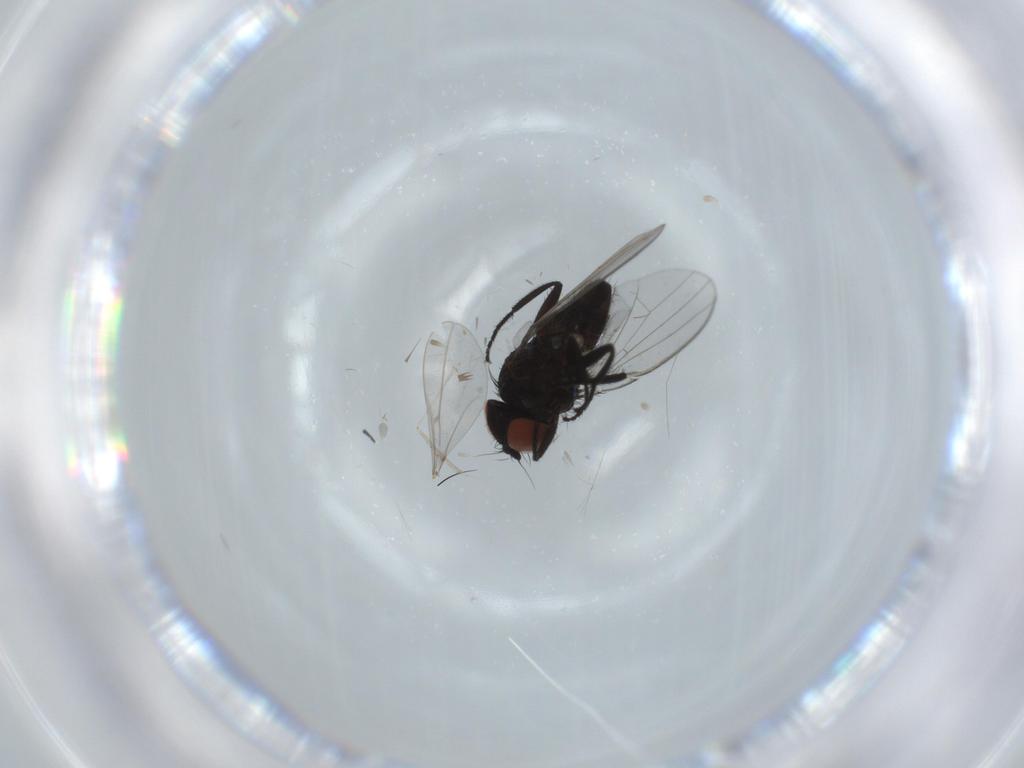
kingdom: Animalia
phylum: Arthropoda
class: Insecta
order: Diptera
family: Milichiidae
